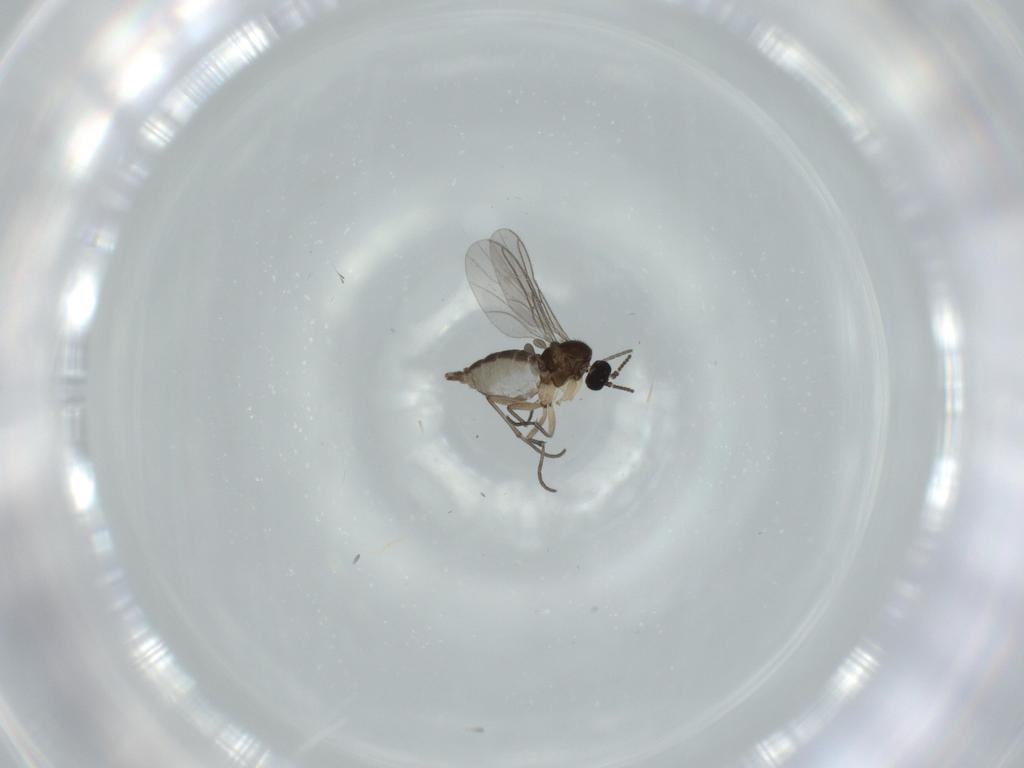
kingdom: Animalia
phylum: Arthropoda
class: Insecta
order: Diptera
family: Sciaridae
